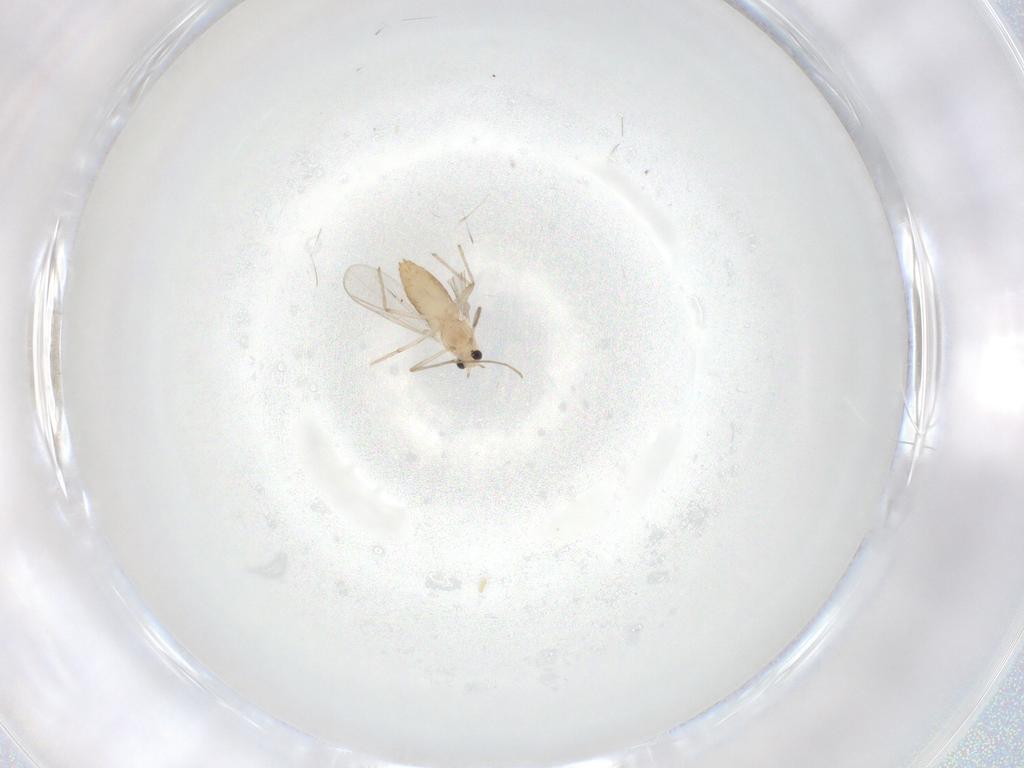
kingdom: Animalia
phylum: Arthropoda
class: Insecta
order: Diptera
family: Chironomidae
